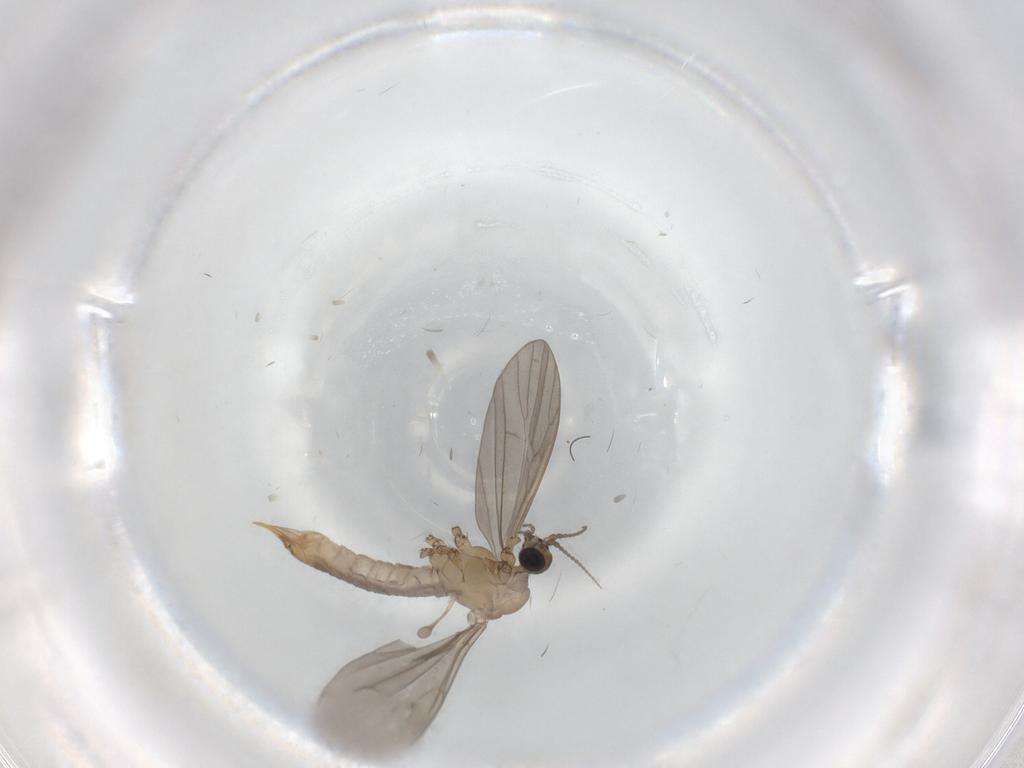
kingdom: Animalia
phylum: Arthropoda
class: Insecta
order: Diptera
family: Limoniidae
